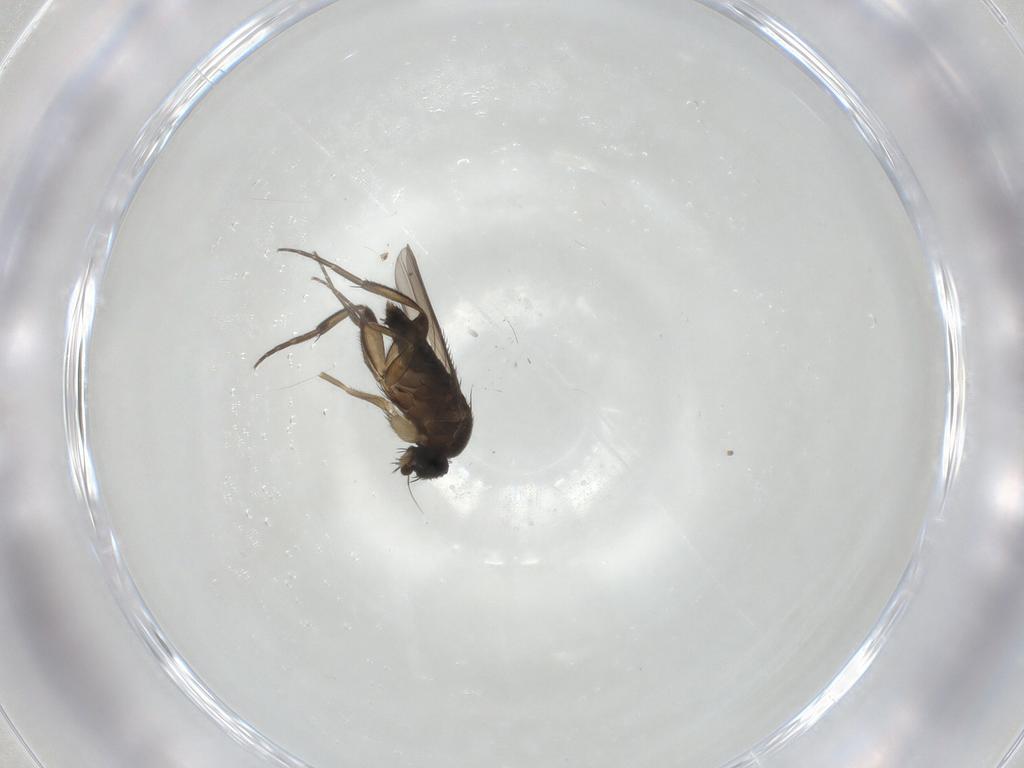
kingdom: Animalia
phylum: Arthropoda
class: Insecta
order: Diptera
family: Phoridae
